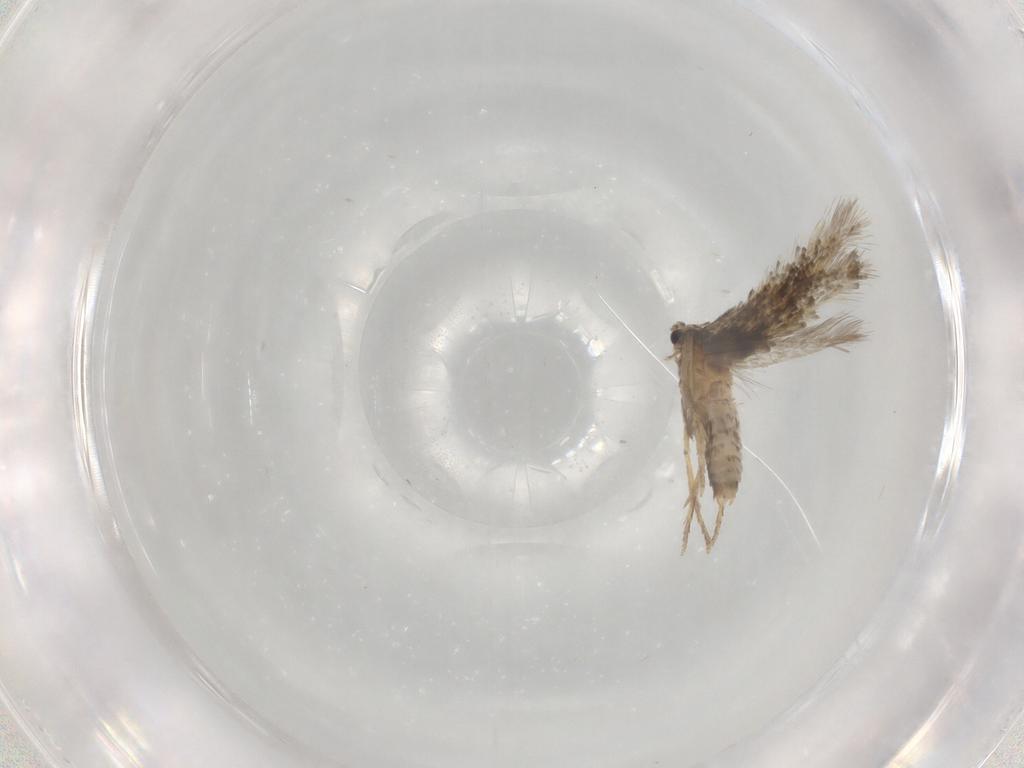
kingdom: Animalia
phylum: Arthropoda
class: Insecta
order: Lepidoptera
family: Nepticulidae
